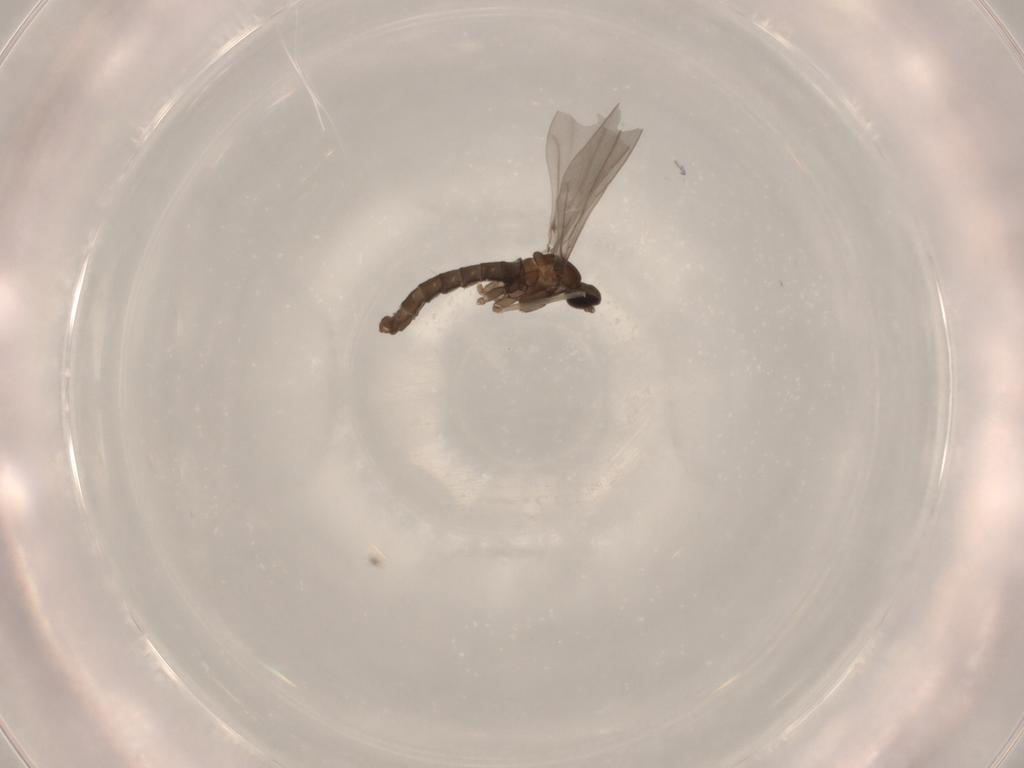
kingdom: Animalia
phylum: Arthropoda
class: Insecta
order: Diptera
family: Cecidomyiidae
